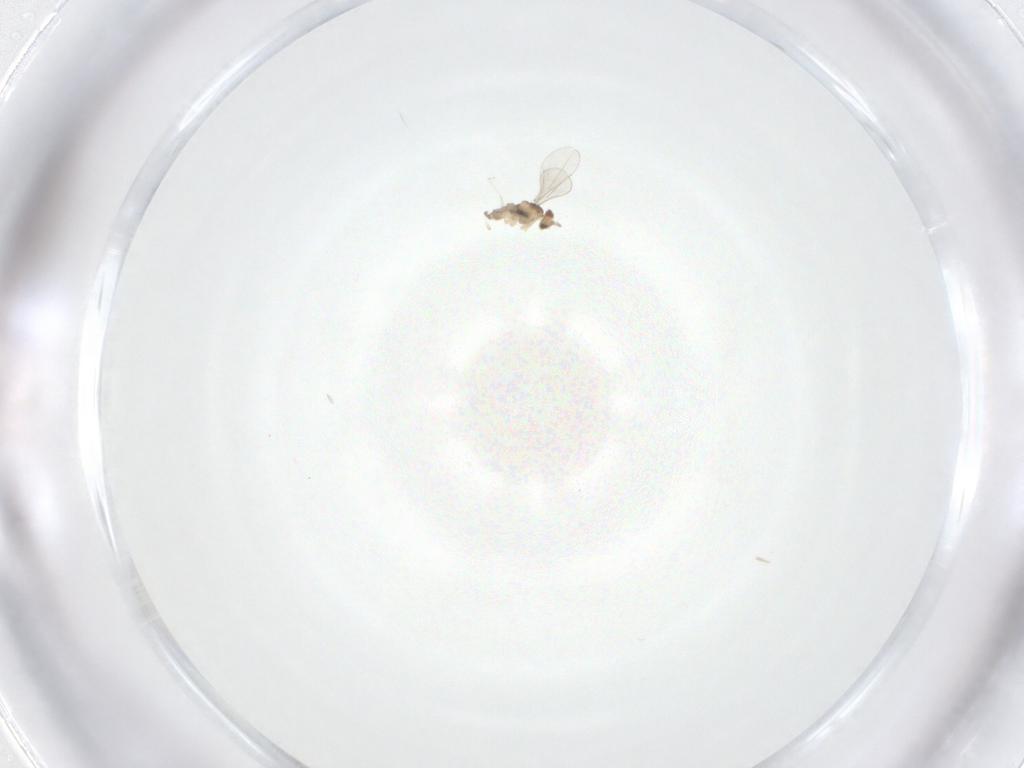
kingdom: Animalia
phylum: Arthropoda
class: Insecta
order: Diptera
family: Cecidomyiidae
